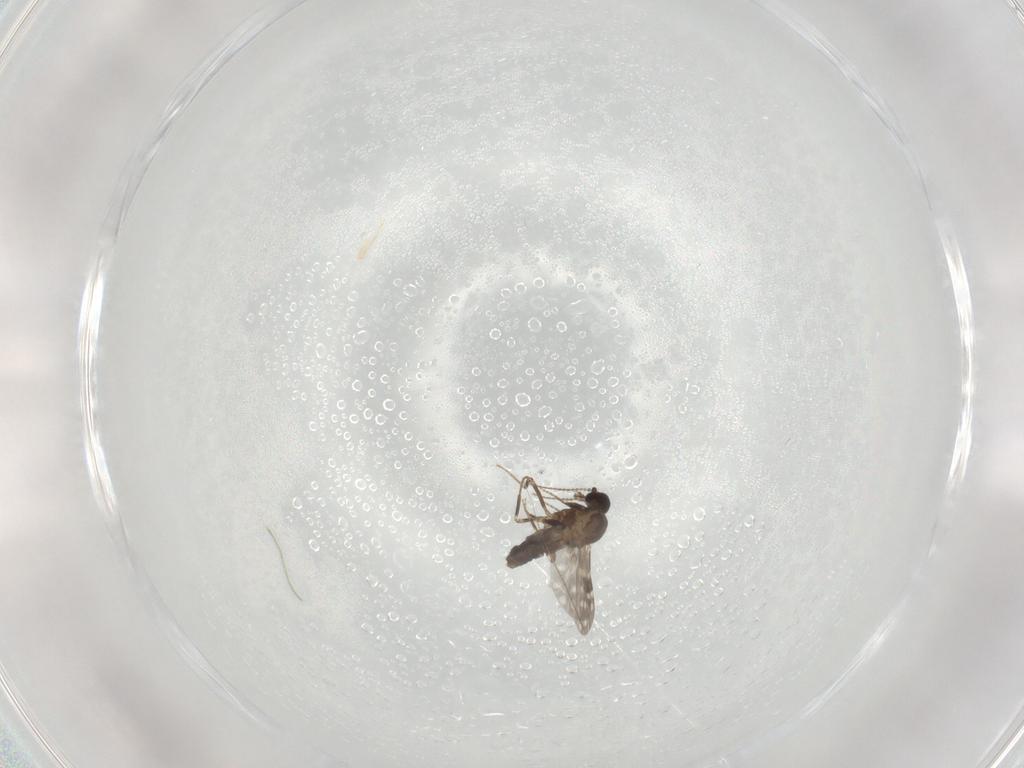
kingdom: Animalia
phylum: Arthropoda
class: Insecta
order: Diptera
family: Ceratopogonidae
